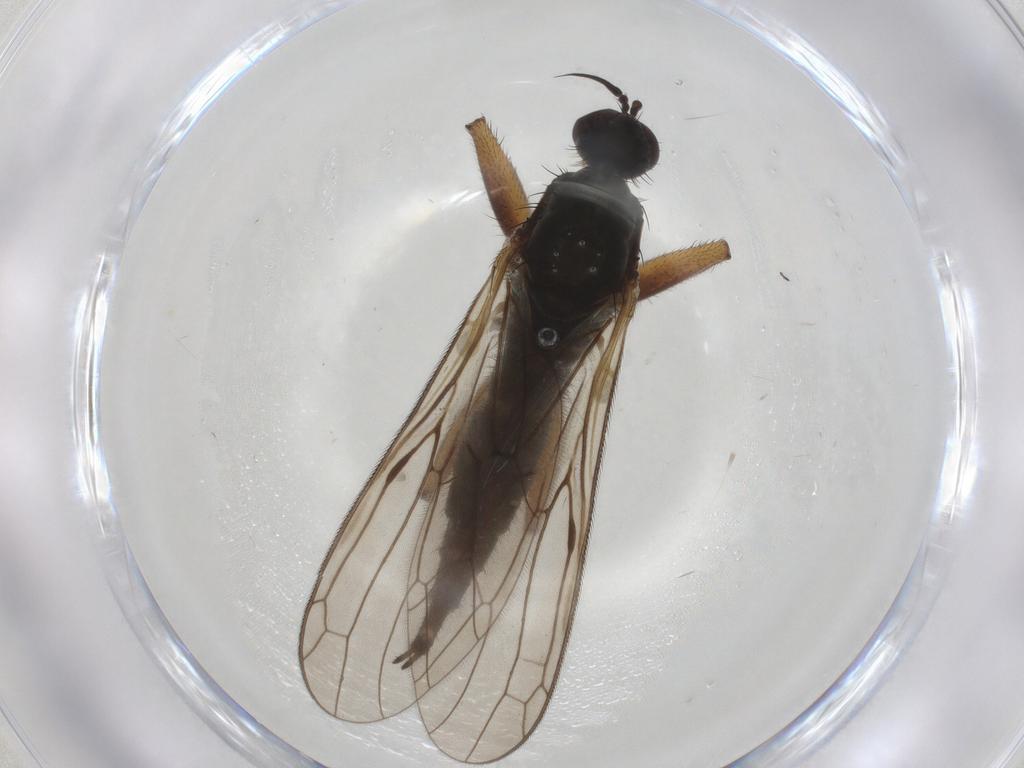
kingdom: Animalia
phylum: Arthropoda
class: Insecta
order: Diptera
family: Empididae
